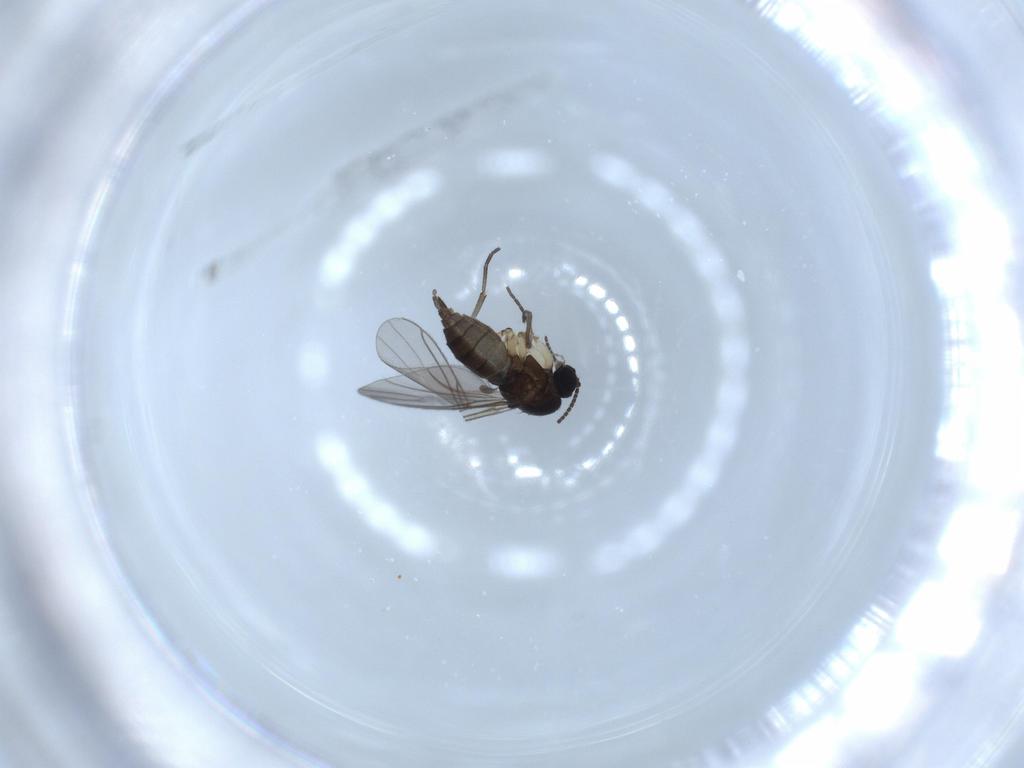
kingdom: Animalia
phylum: Arthropoda
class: Insecta
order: Diptera
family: Sciaridae
